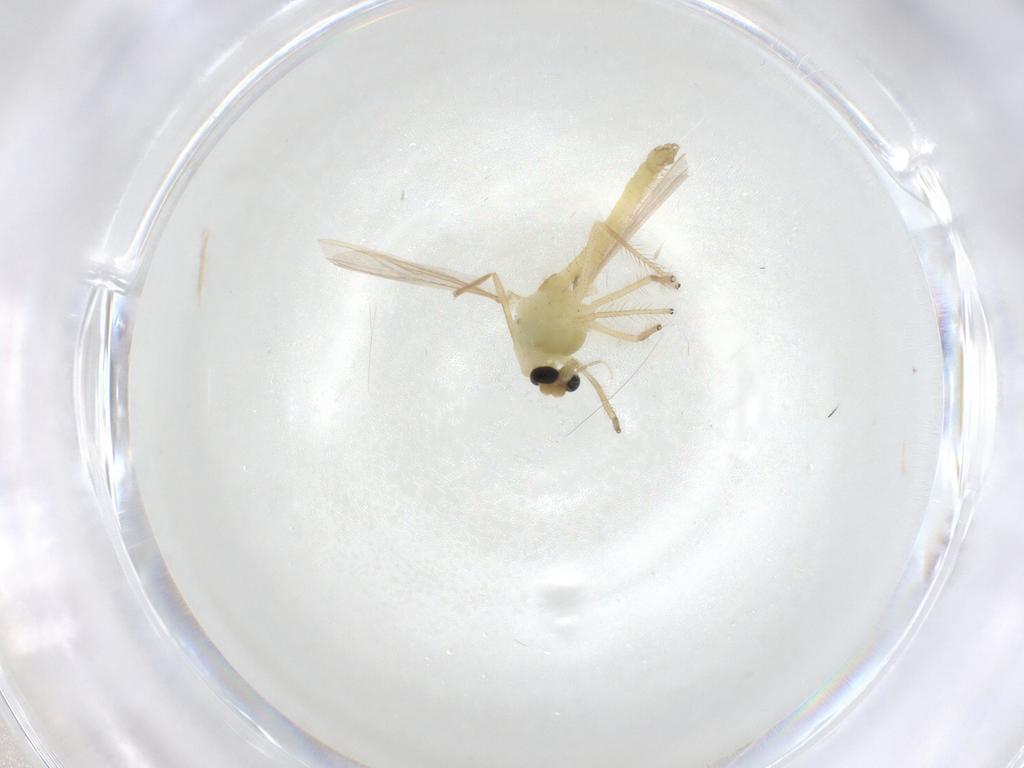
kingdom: Animalia
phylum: Arthropoda
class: Insecta
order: Diptera
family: Chironomidae
